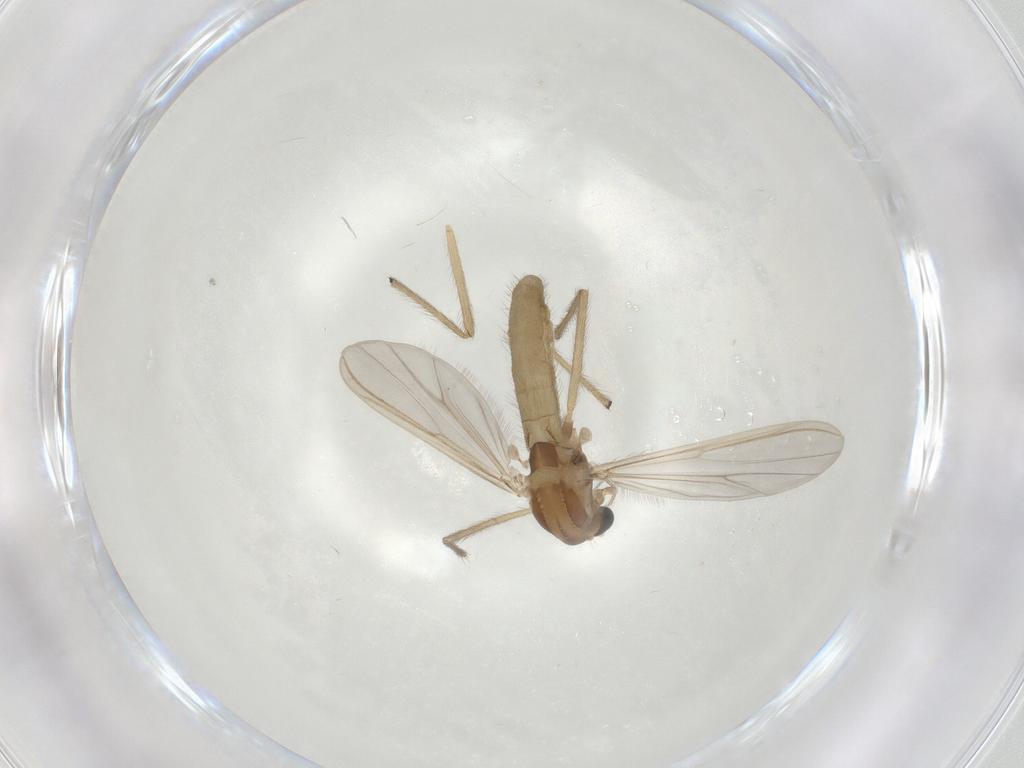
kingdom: Animalia
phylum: Arthropoda
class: Insecta
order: Diptera
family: Chironomidae
